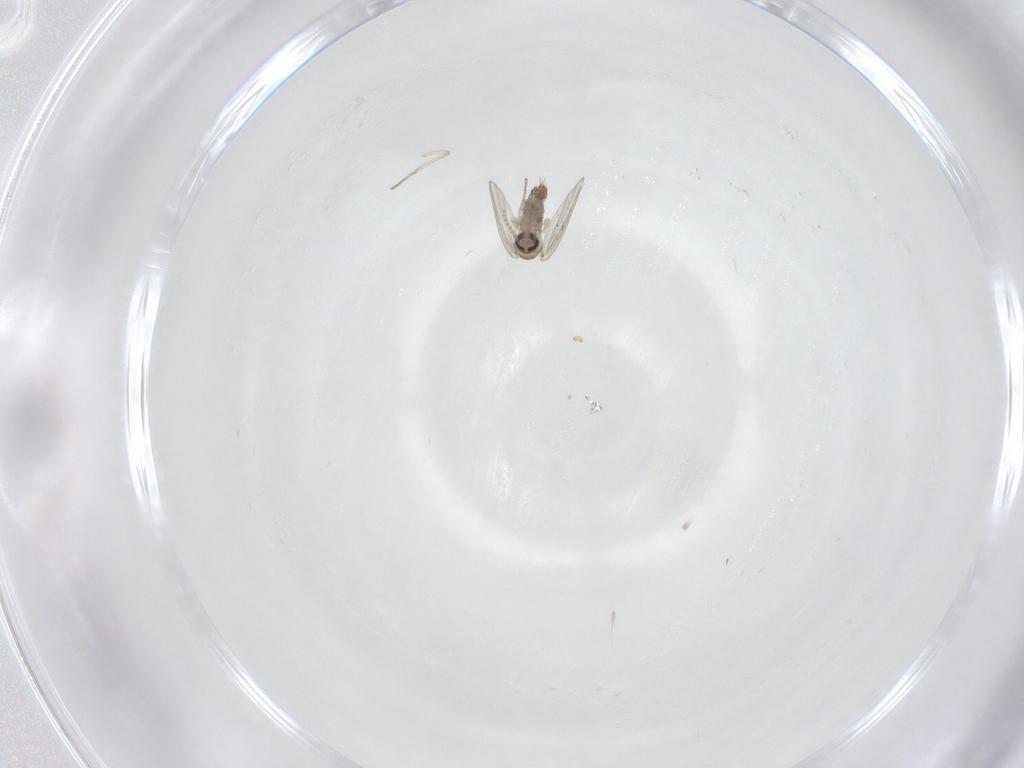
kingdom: Animalia
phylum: Arthropoda
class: Insecta
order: Diptera
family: Psychodidae
